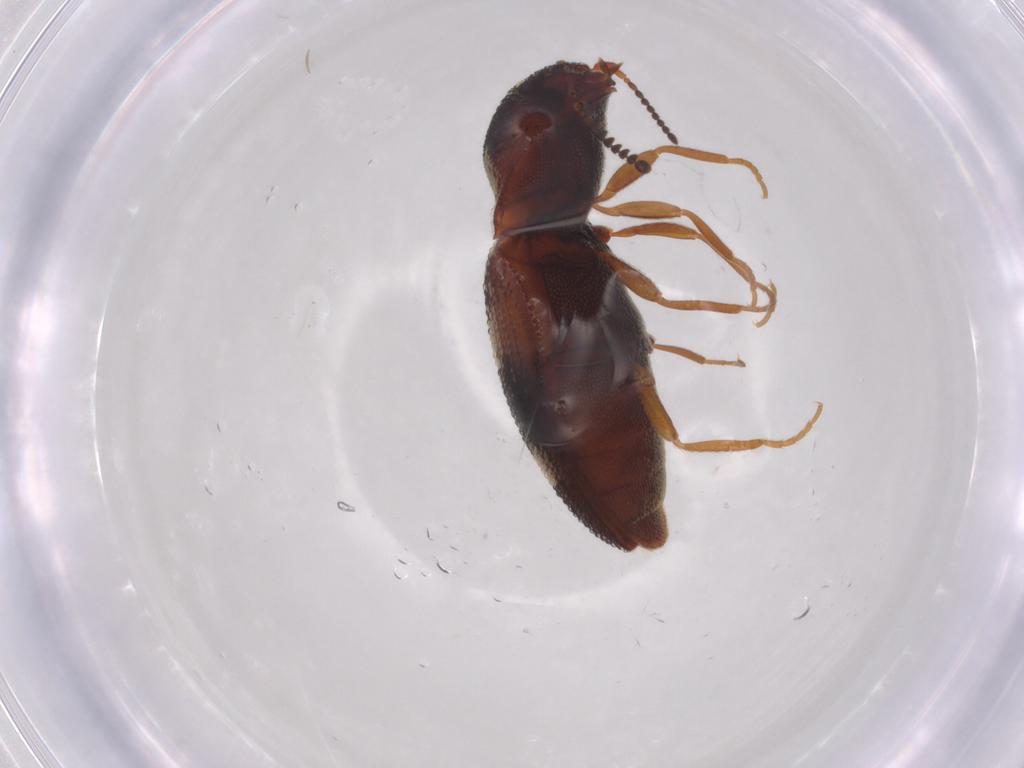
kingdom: Animalia
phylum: Arthropoda
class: Insecta
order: Coleoptera
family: Elateridae
